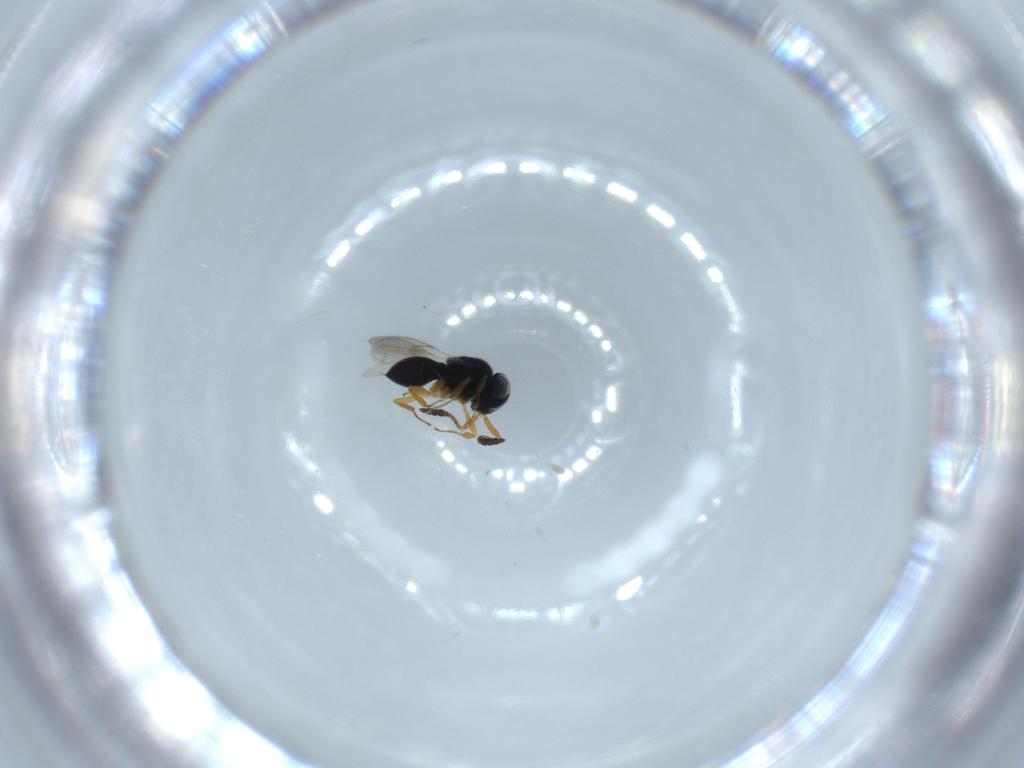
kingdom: Animalia
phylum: Arthropoda
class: Insecta
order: Hymenoptera
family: Scelionidae
